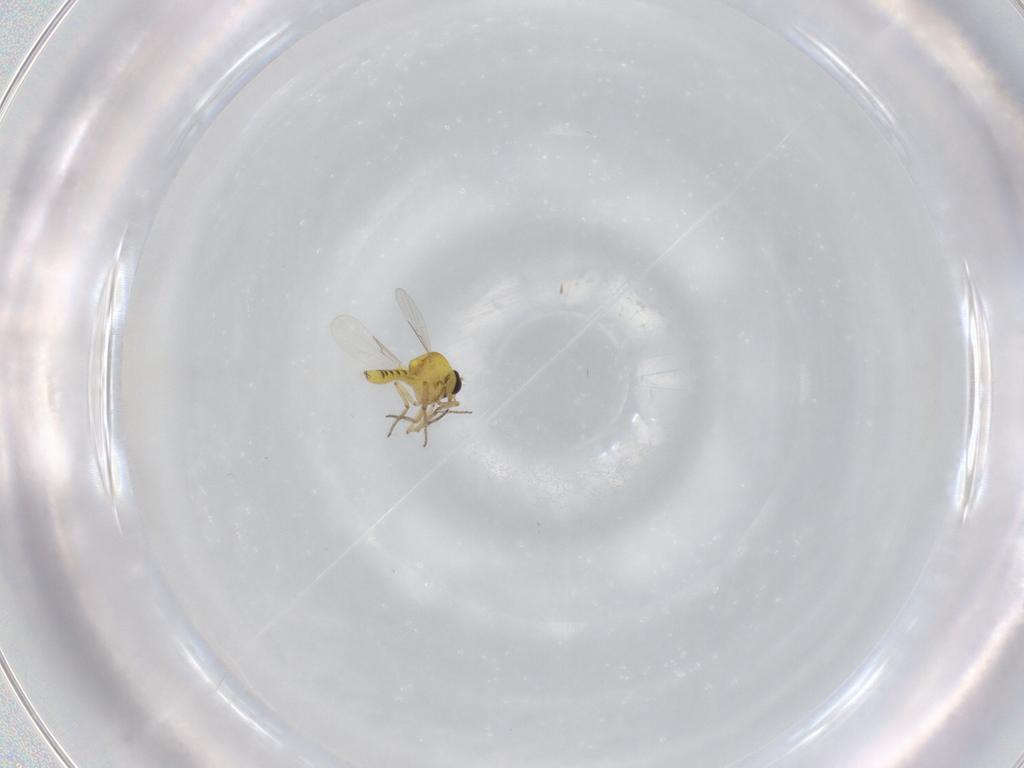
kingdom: Animalia
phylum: Arthropoda
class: Insecta
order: Diptera
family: Ceratopogonidae
